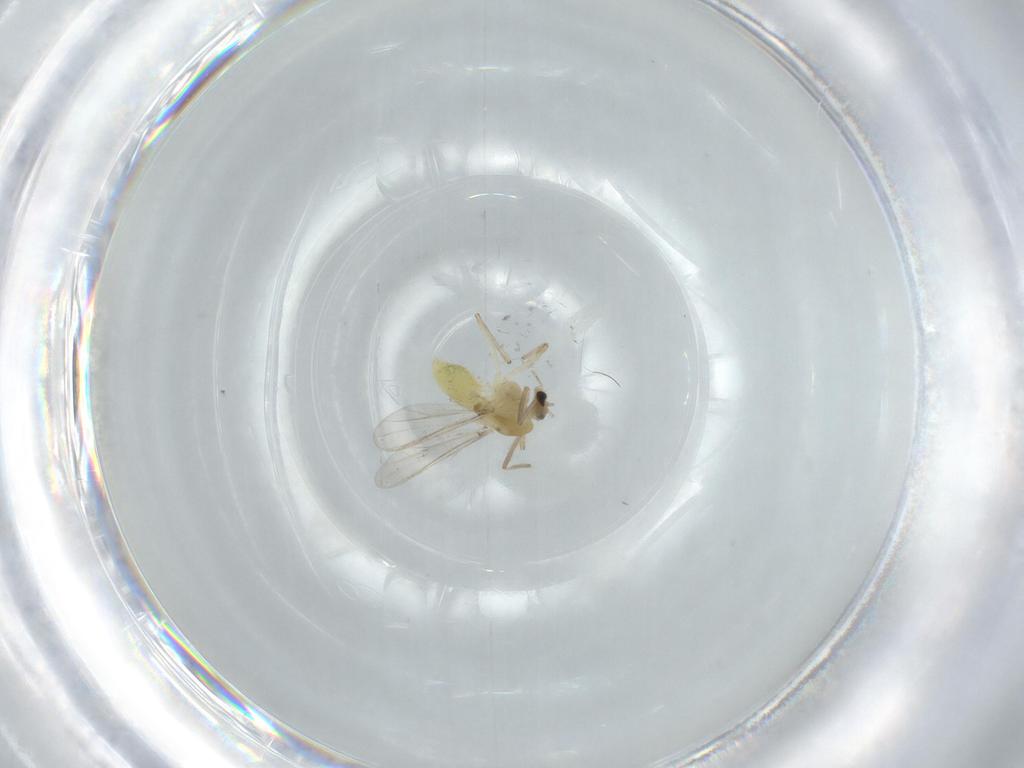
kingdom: Animalia
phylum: Arthropoda
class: Insecta
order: Diptera
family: Chironomidae
